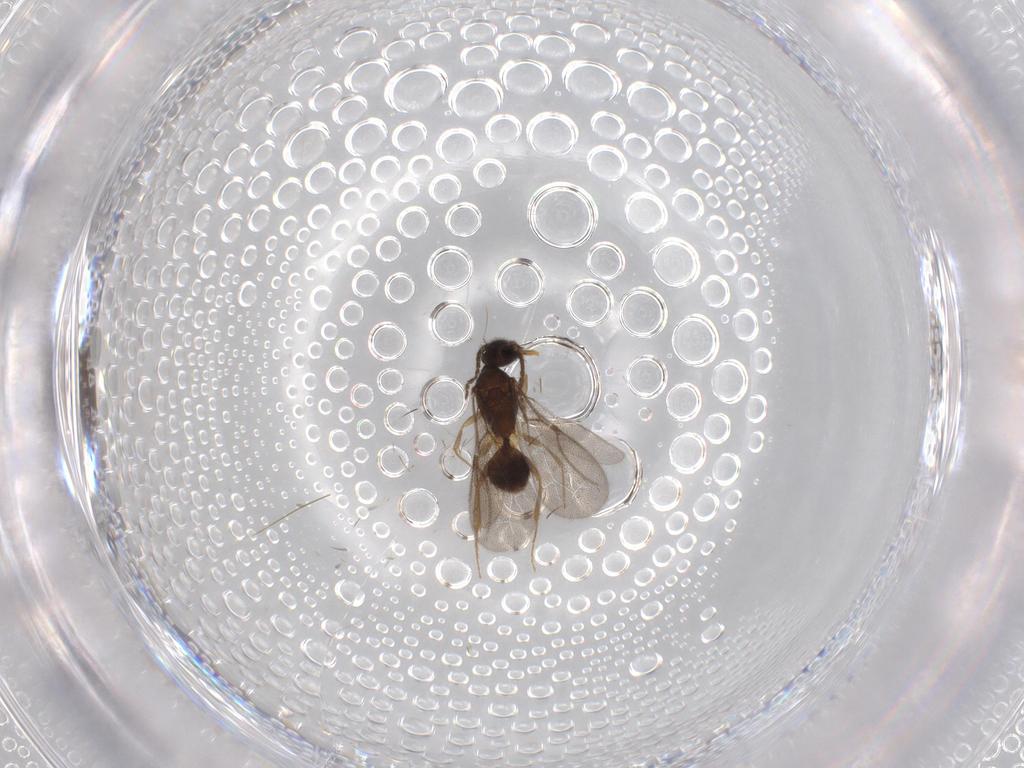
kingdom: Animalia
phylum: Arthropoda
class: Insecta
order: Hymenoptera
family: Bethylidae
